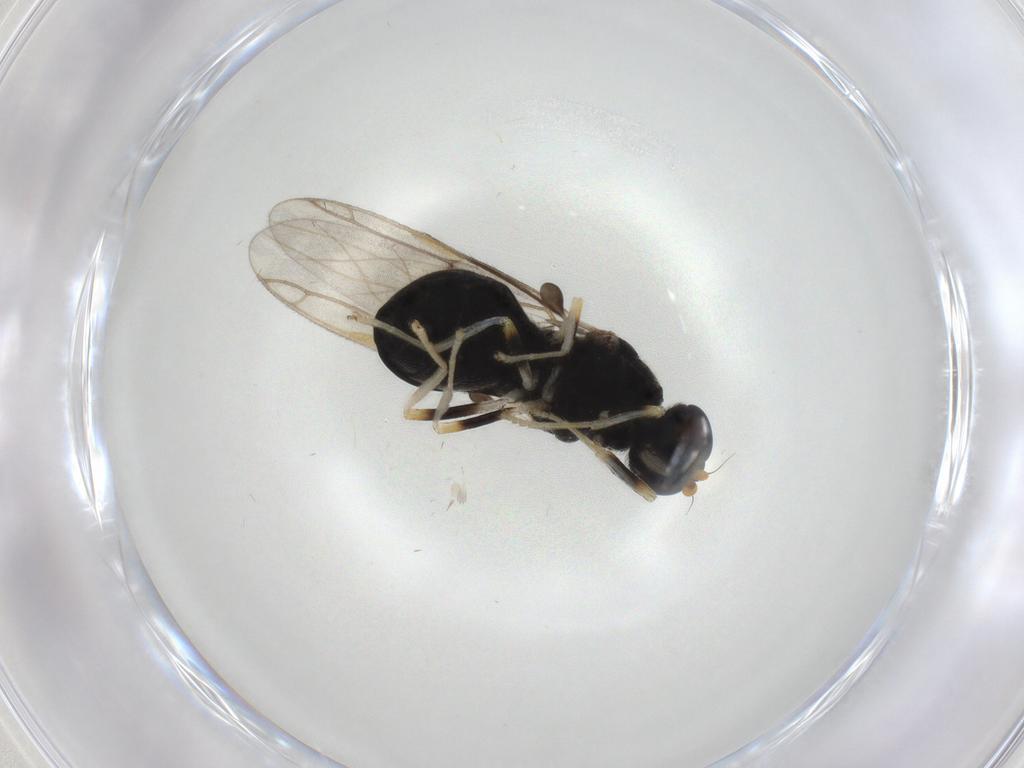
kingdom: Animalia
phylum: Arthropoda
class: Insecta
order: Diptera
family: Stratiomyidae
